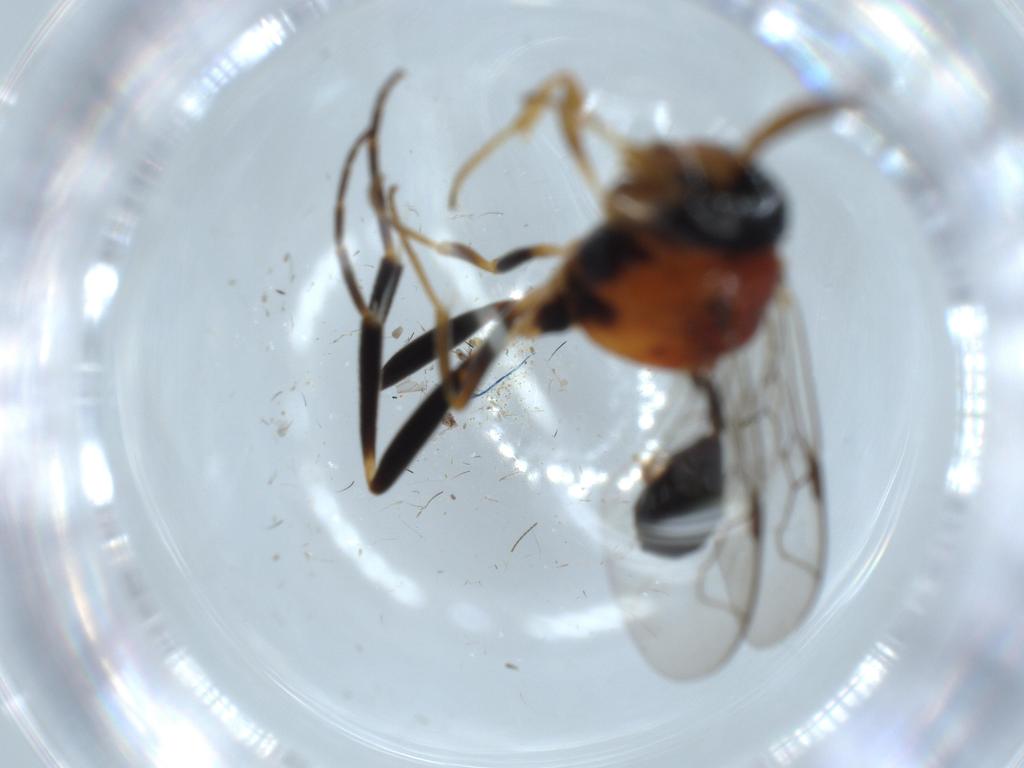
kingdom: Animalia
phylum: Arthropoda
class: Insecta
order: Hymenoptera
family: Evaniidae
